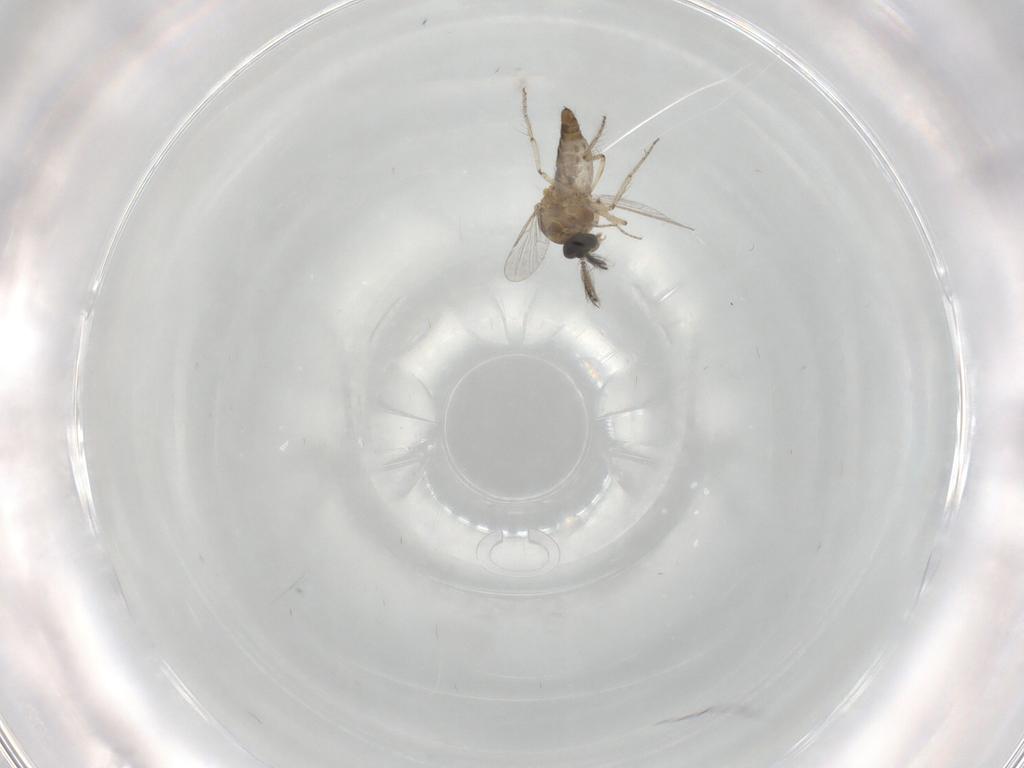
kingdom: Animalia
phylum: Arthropoda
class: Insecta
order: Diptera
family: Ceratopogonidae
